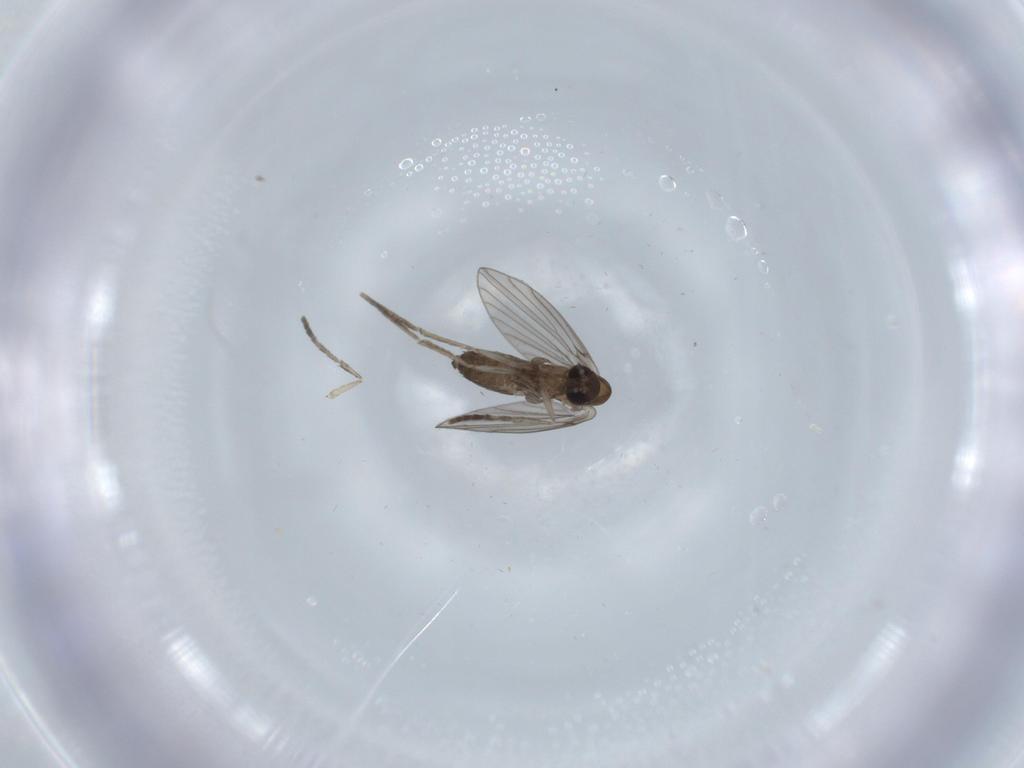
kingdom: Animalia
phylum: Arthropoda
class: Insecta
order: Diptera
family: Psychodidae
